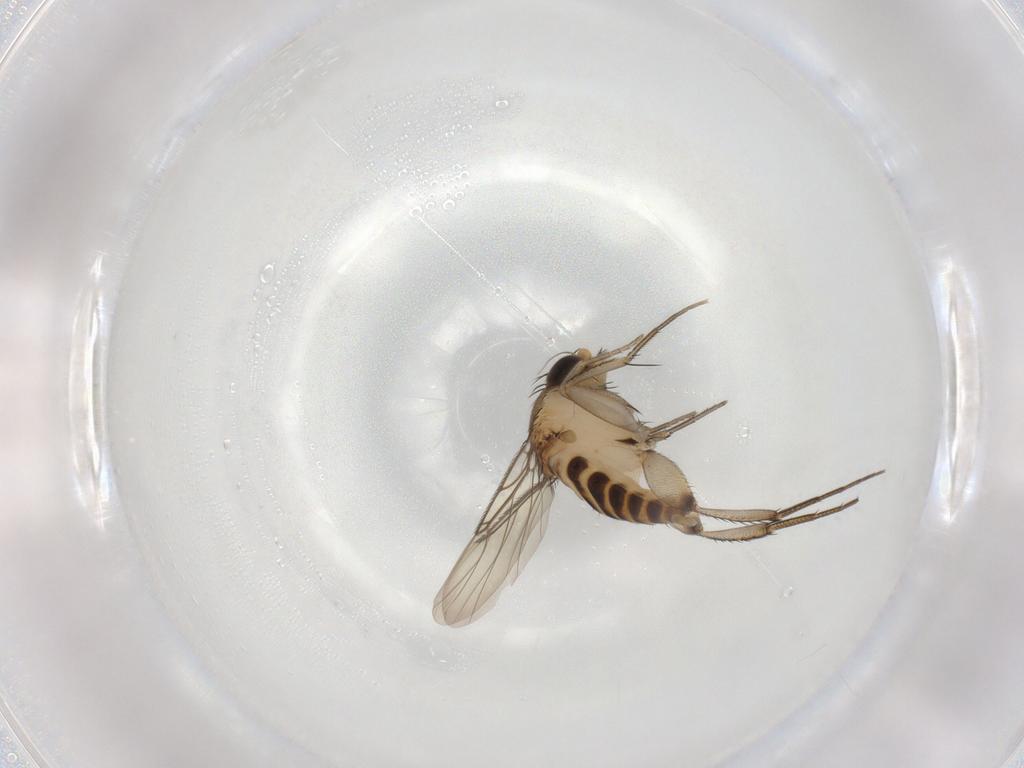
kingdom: Animalia
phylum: Arthropoda
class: Insecta
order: Diptera
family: Phoridae
